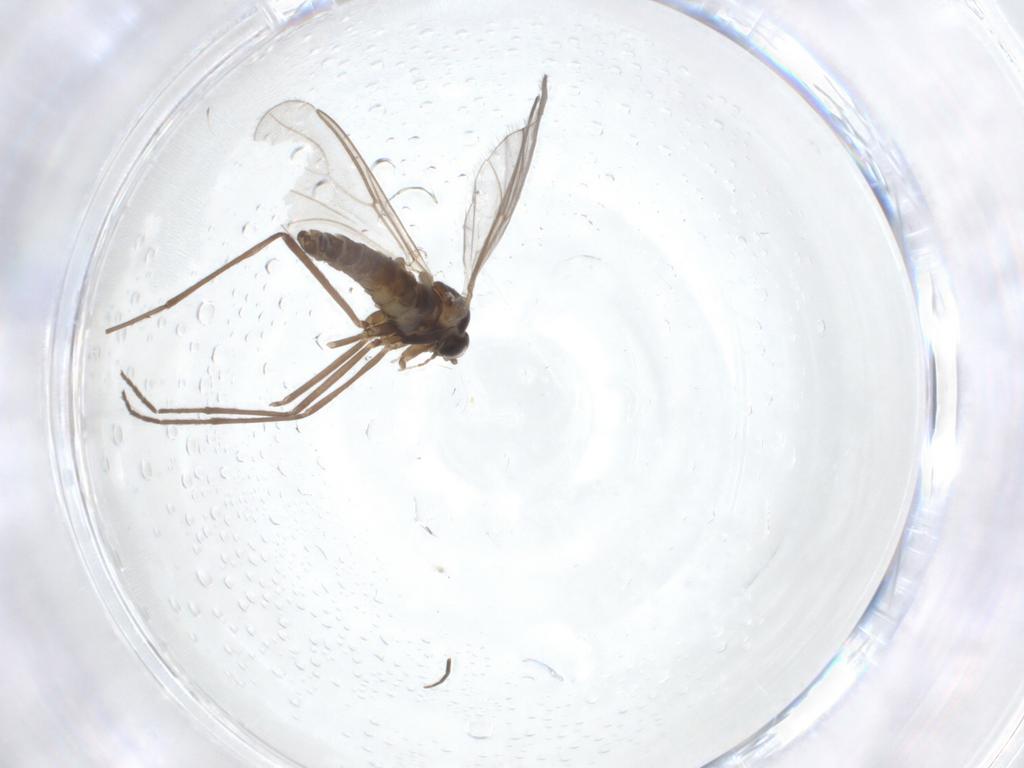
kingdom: Animalia
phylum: Arthropoda
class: Insecta
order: Diptera
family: Cecidomyiidae
